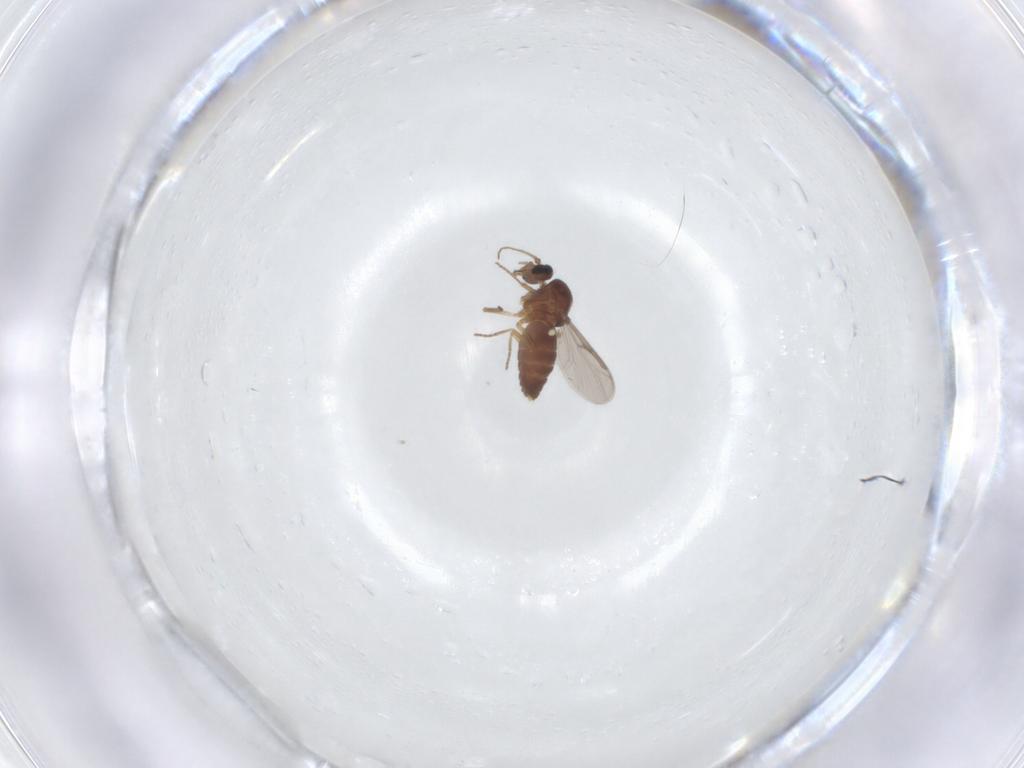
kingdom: Animalia
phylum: Arthropoda
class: Insecta
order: Diptera
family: Ceratopogonidae
